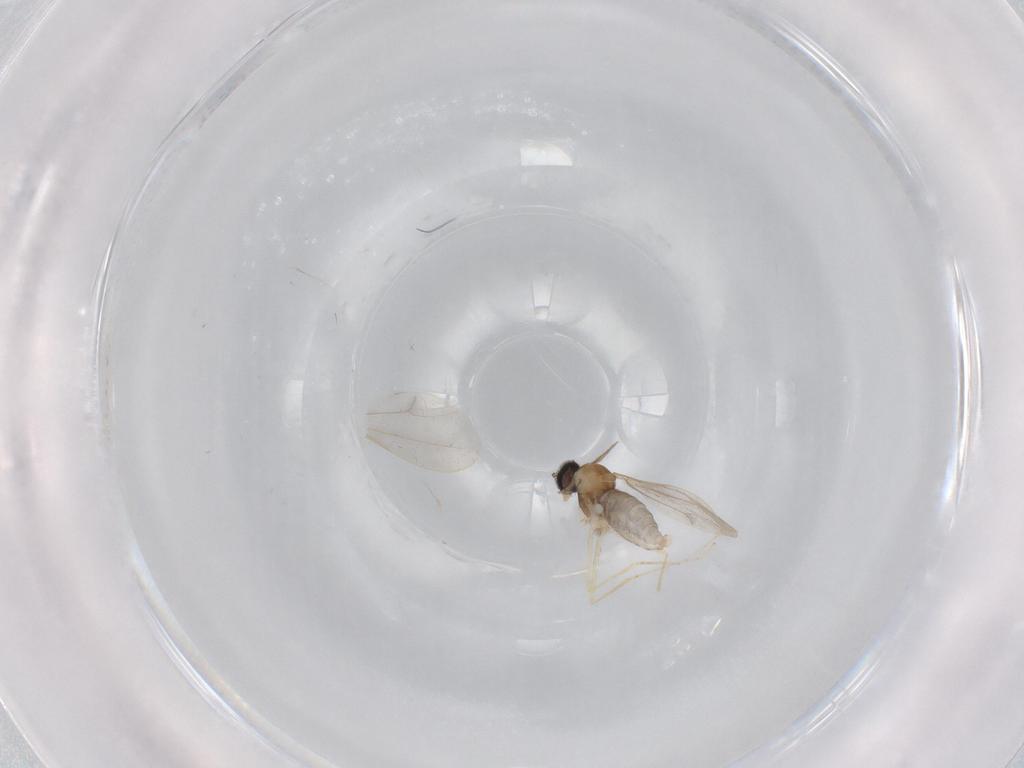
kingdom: Animalia
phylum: Arthropoda
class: Insecta
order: Diptera
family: Cecidomyiidae
